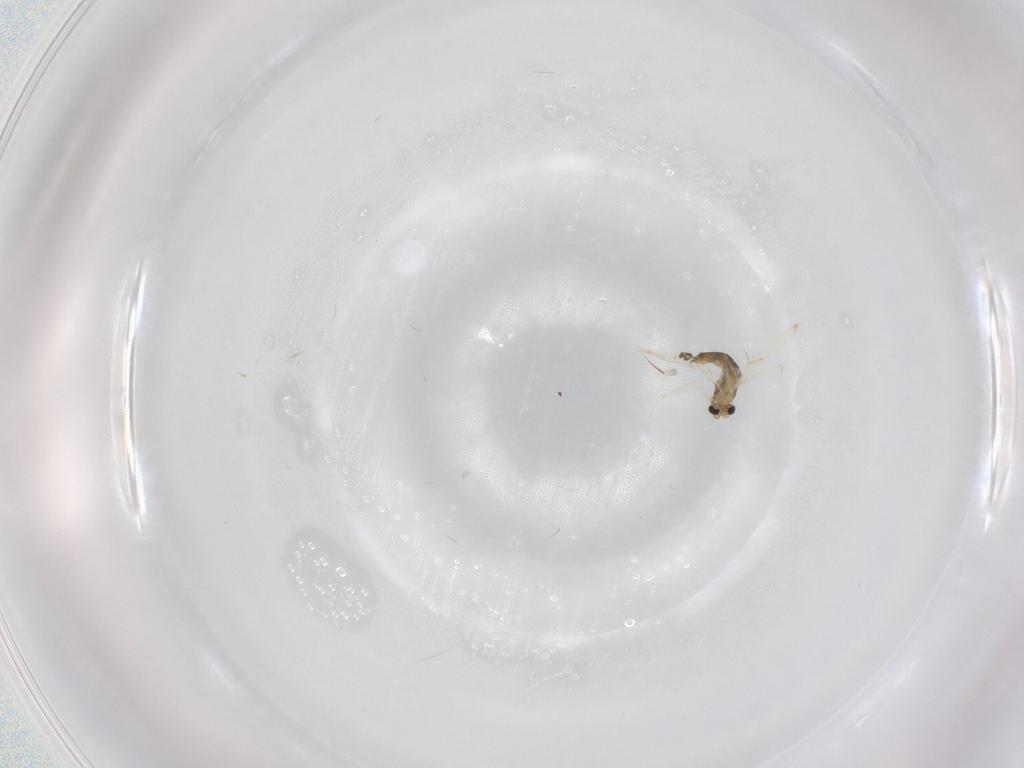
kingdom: Animalia
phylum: Arthropoda
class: Insecta
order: Diptera
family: Chironomidae
